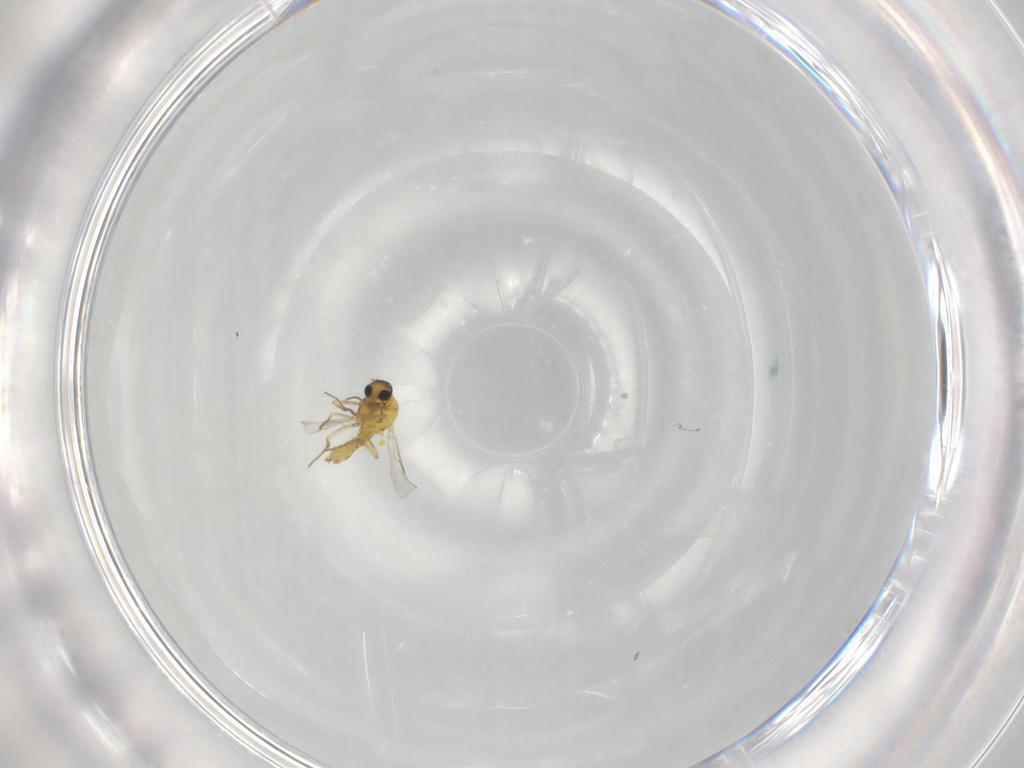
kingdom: Animalia
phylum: Arthropoda
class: Insecta
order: Diptera
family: Ceratopogonidae
